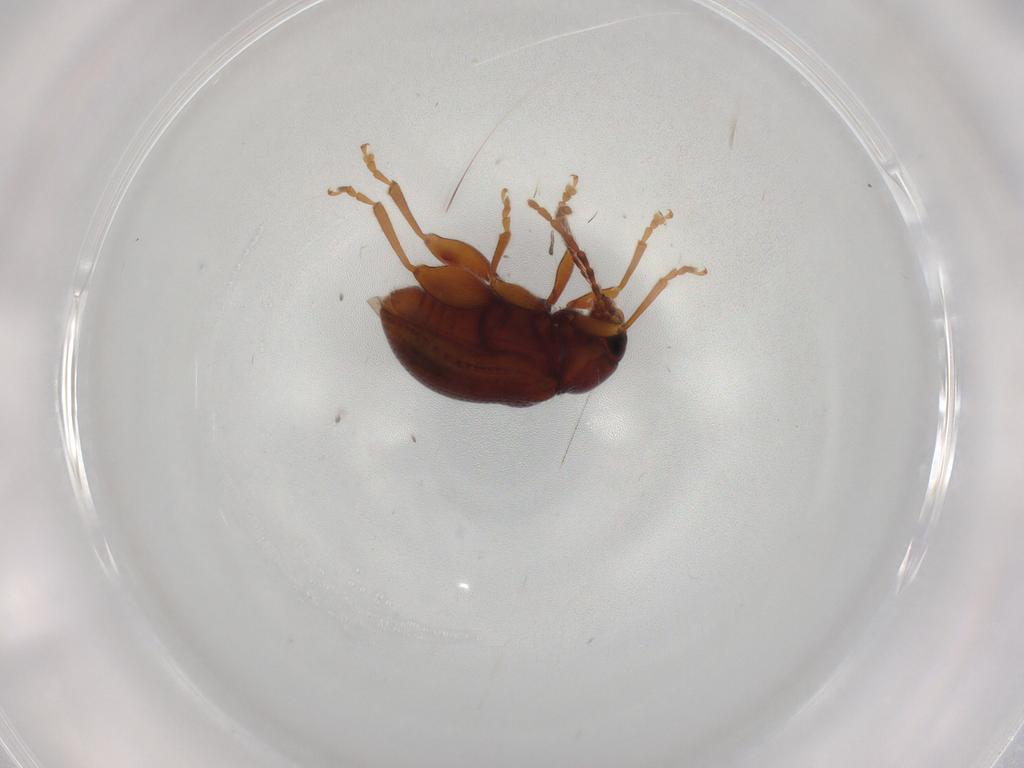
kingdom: Animalia
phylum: Arthropoda
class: Insecta
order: Coleoptera
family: Chrysomelidae
